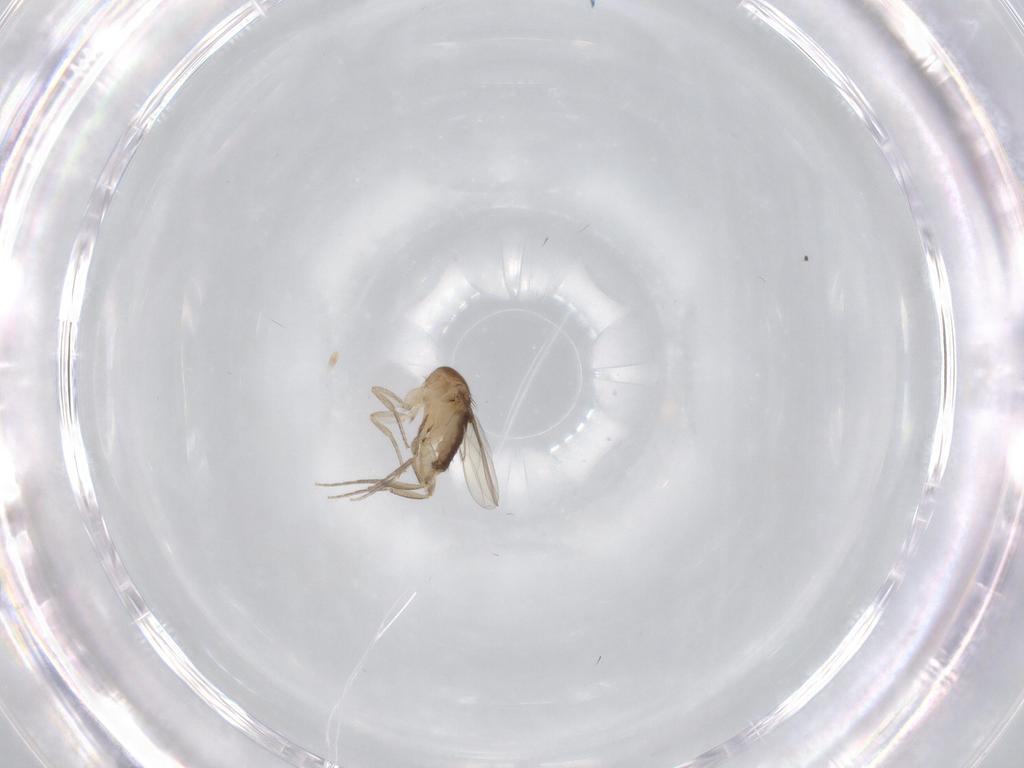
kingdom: Animalia
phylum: Arthropoda
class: Insecta
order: Diptera
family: Phoridae
